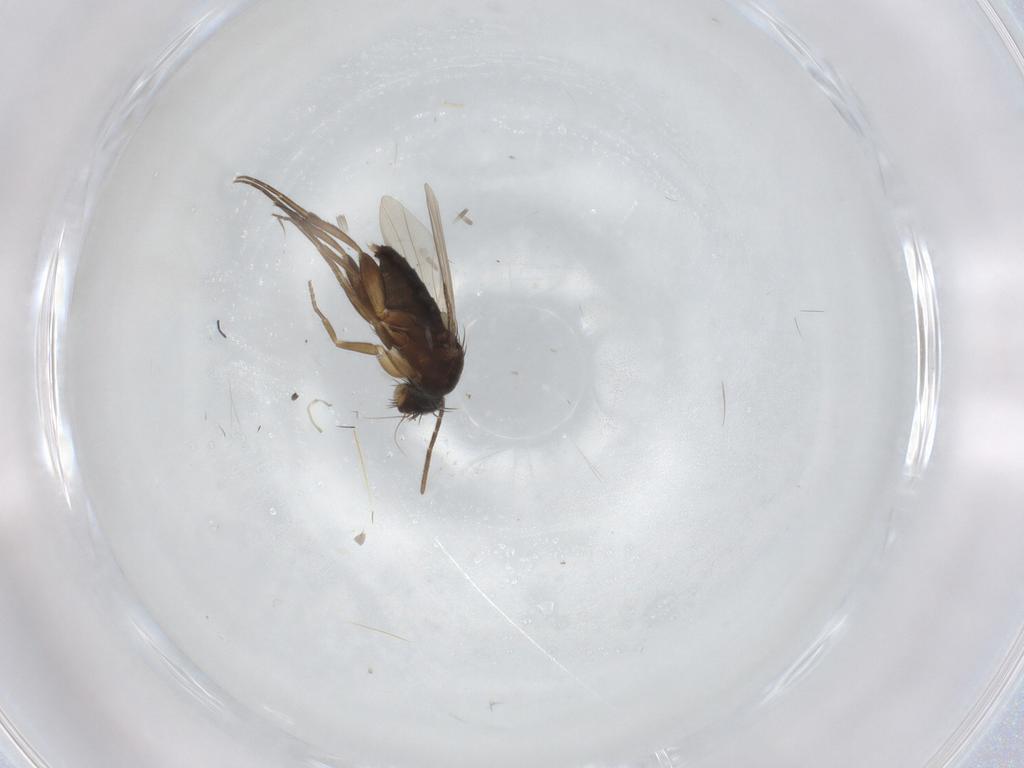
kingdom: Animalia
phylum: Arthropoda
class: Insecta
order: Diptera
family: Phoridae
